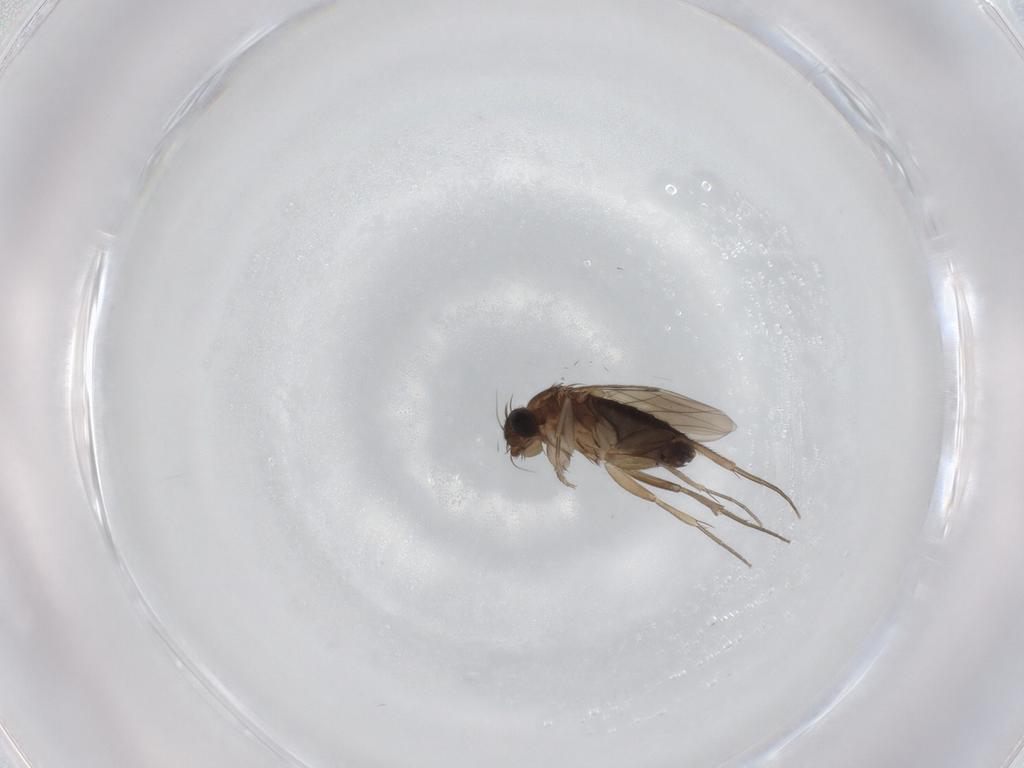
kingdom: Animalia
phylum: Arthropoda
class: Insecta
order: Diptera
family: Phoridae
